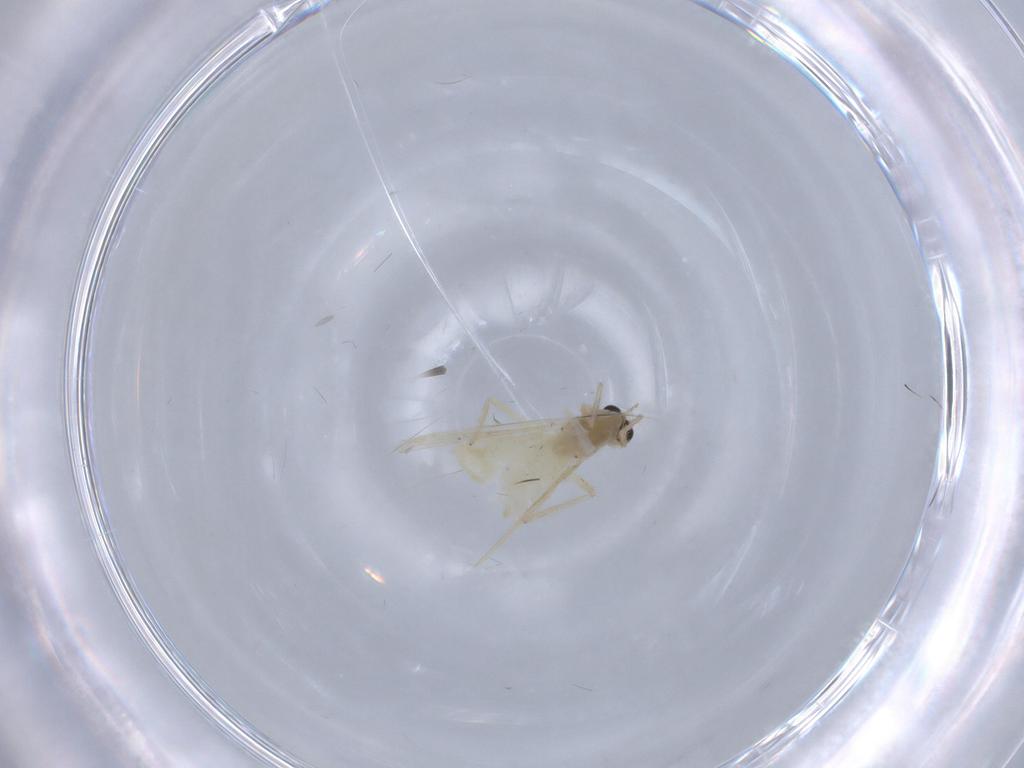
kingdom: Animalia
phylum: Arthropoda
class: Insecta
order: Diptera
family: Chironomidae
